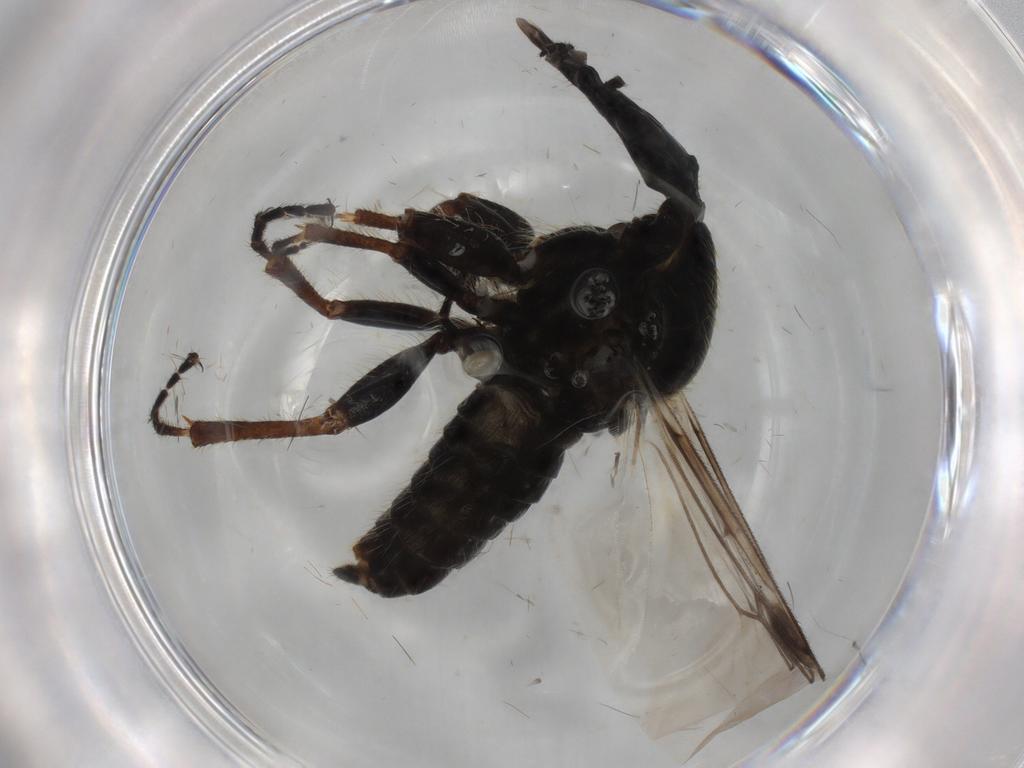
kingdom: Animalia
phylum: Arthropoda
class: Insecta
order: Diptera
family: Bibionidae
